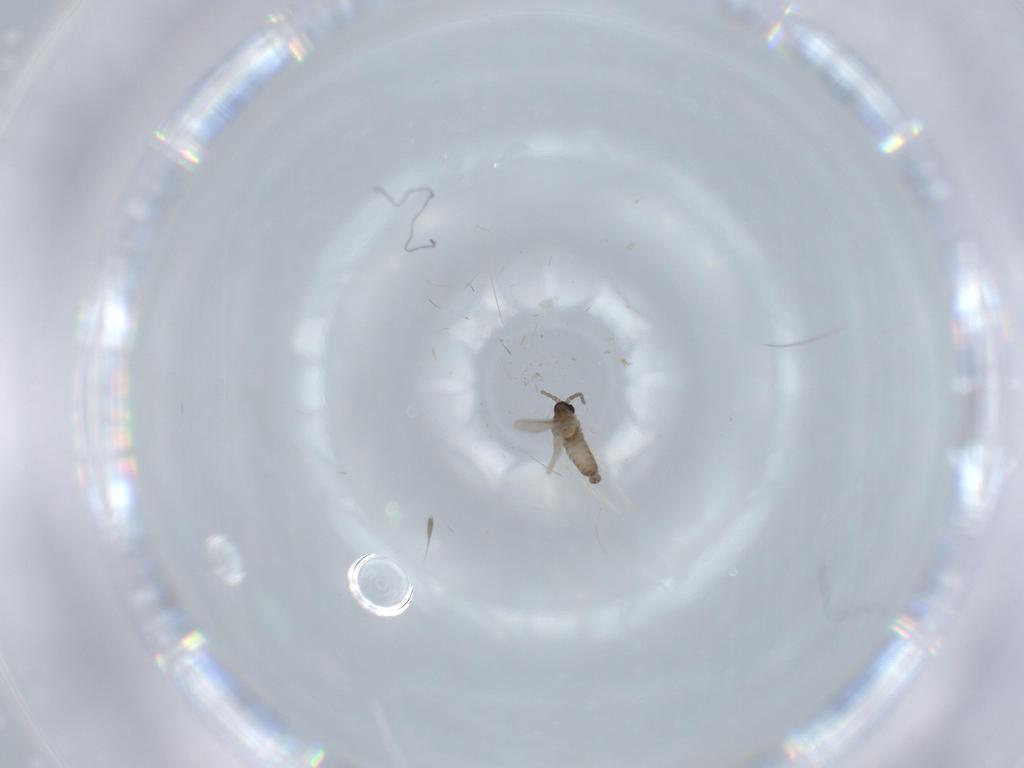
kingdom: Animalia
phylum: Arthropoda
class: Insecta
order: Diptera
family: Cecidomyiidae
